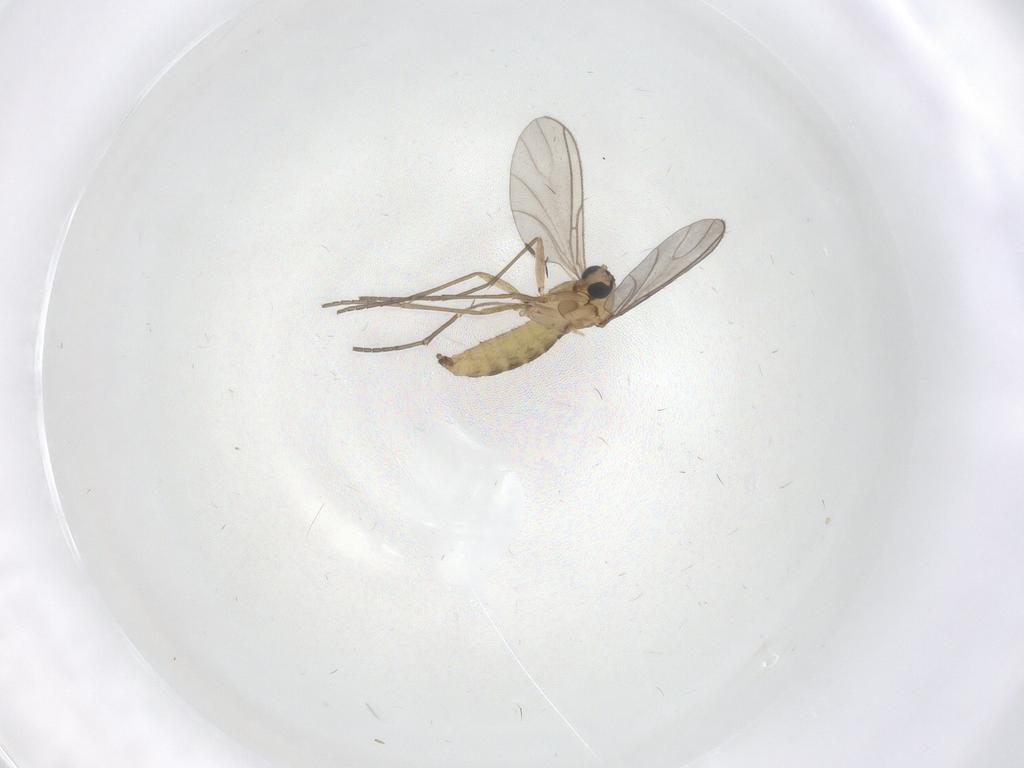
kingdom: Animalia
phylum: Arthropoda
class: Insecta
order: Diptera
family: Sciaridae
